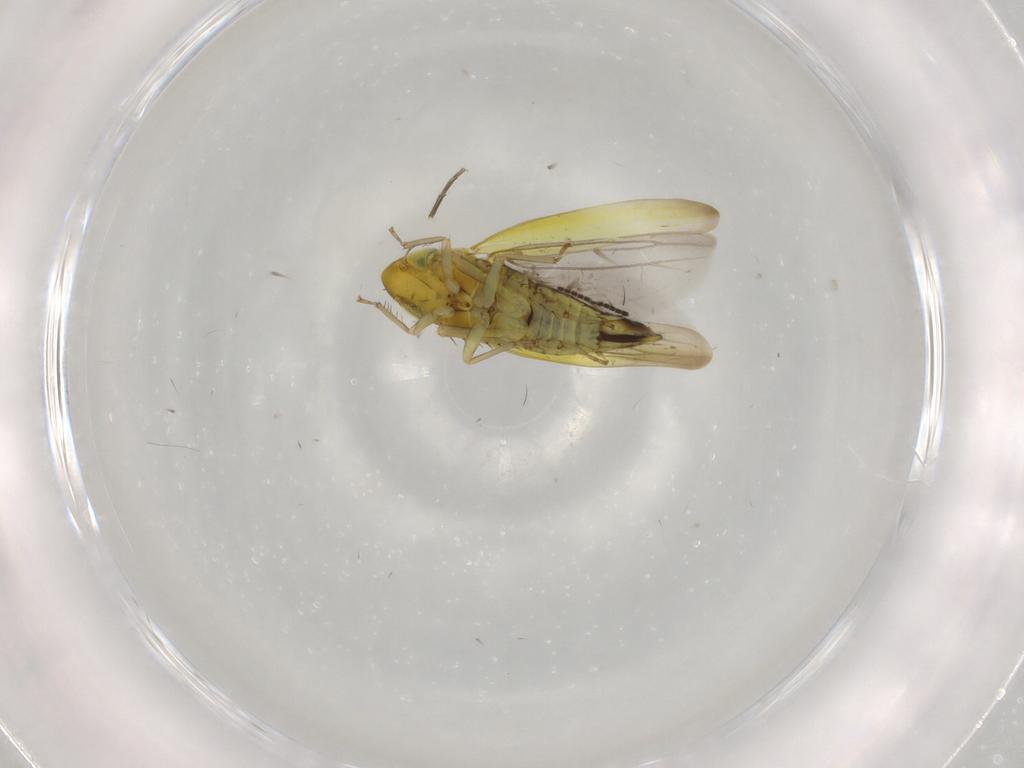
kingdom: Animalia
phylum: Arthropoda
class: Insecta
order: Hemiptera
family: Cicadellidae
